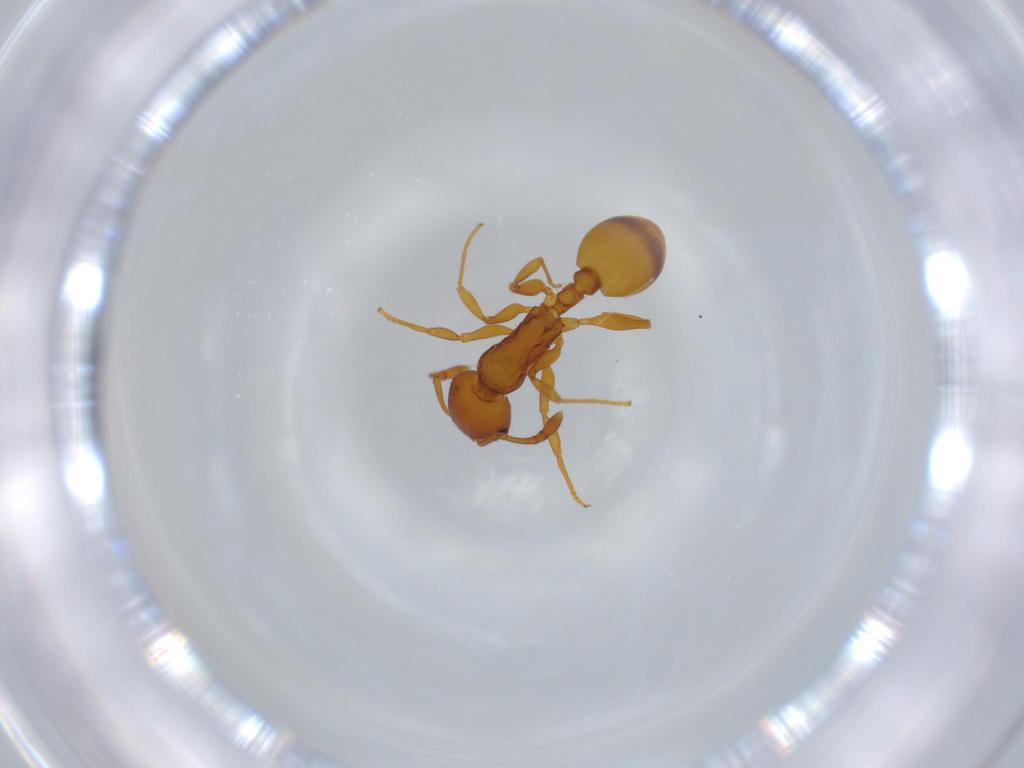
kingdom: Animalia
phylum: Arthropoda
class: Insecta
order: Hymenoptera
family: Formicidae
